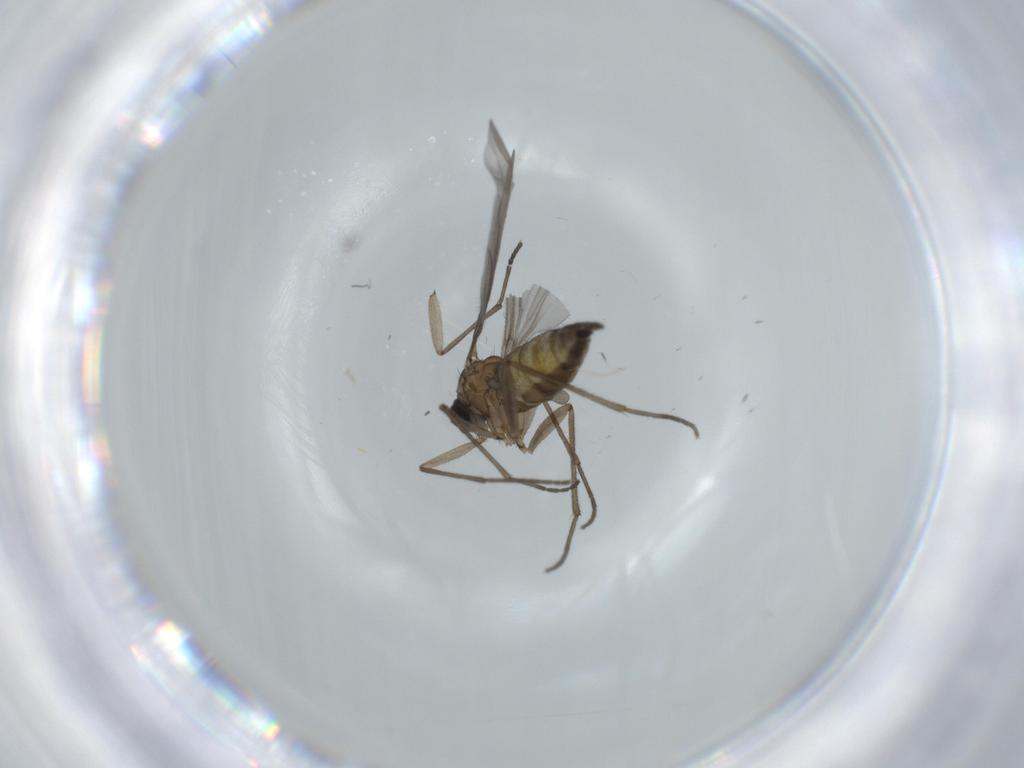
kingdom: Animalia
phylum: Arthropoda
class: Insecta
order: Diptera
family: Sciaridae
